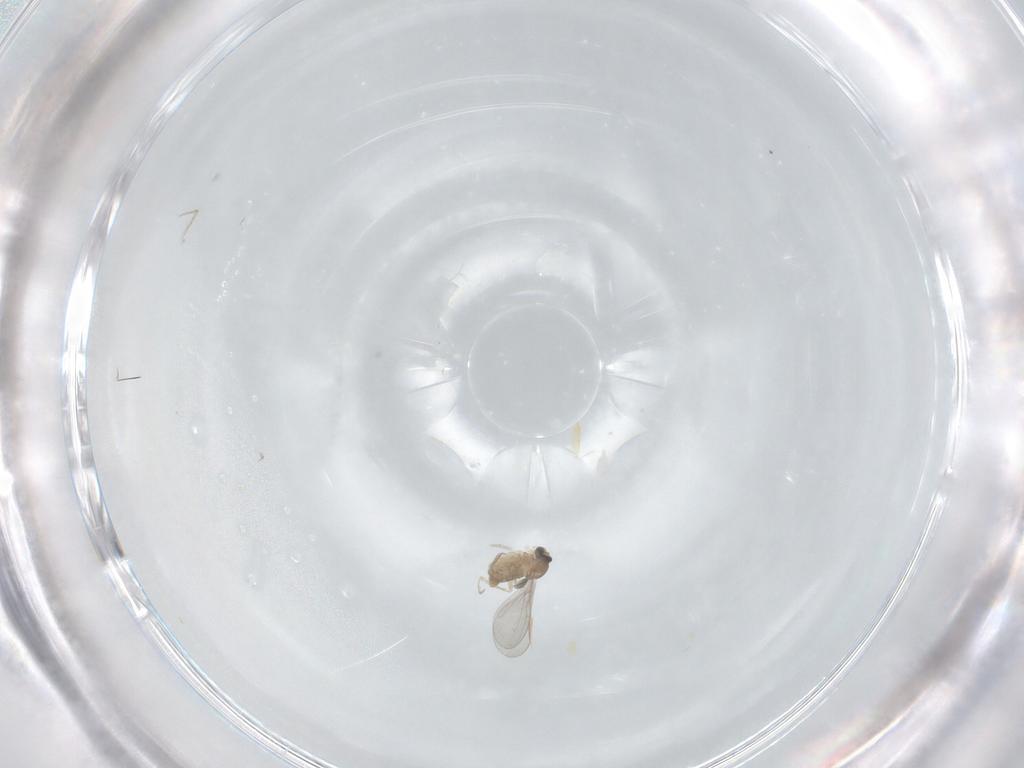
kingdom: Animalia
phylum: Arthropoda
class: Insecta
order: Diptera
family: Cecidomyiidae
